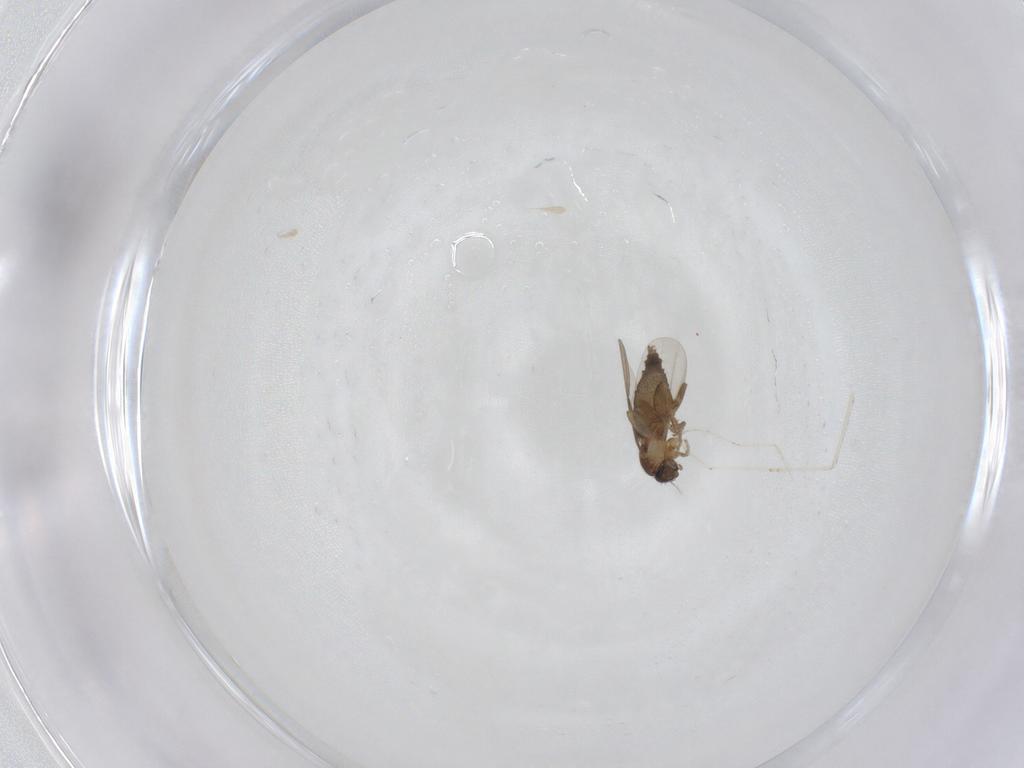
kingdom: Animalia
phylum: Arthropoda
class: Insecta
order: Diptera
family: Cecidomyiidae
